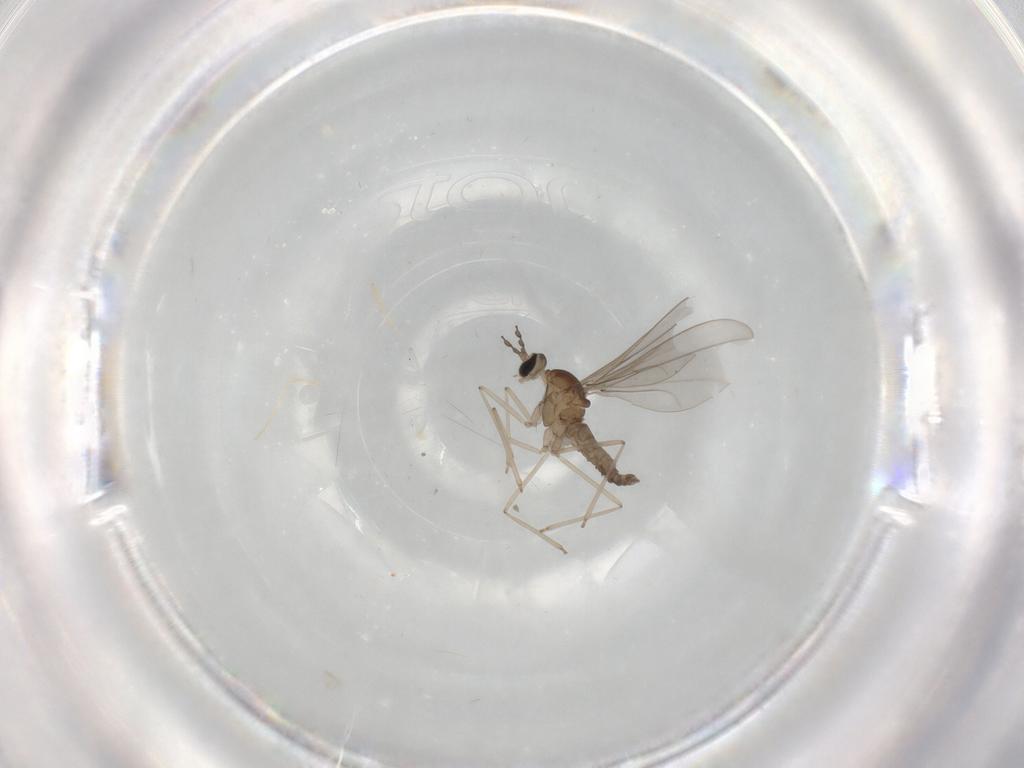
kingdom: Animalia
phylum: Arthropoda
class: Insecta
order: Diptera
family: Cecidomyiidae
